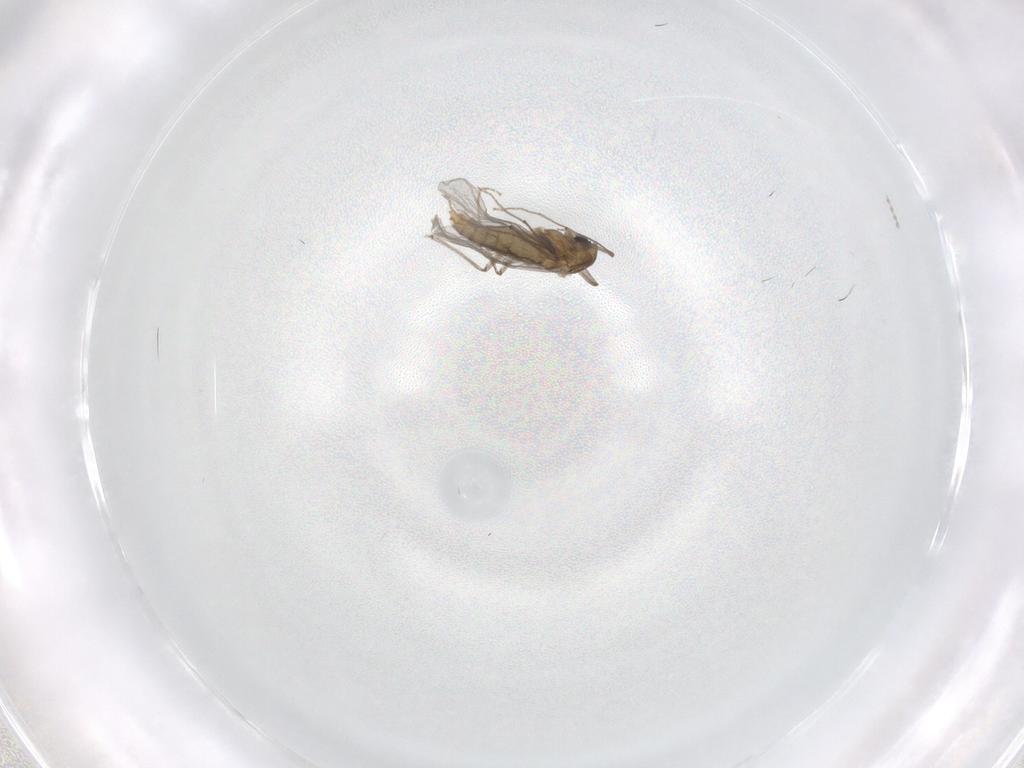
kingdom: Animalia
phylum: Arthropoda
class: Insecta
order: Diptera
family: Chironomidae
